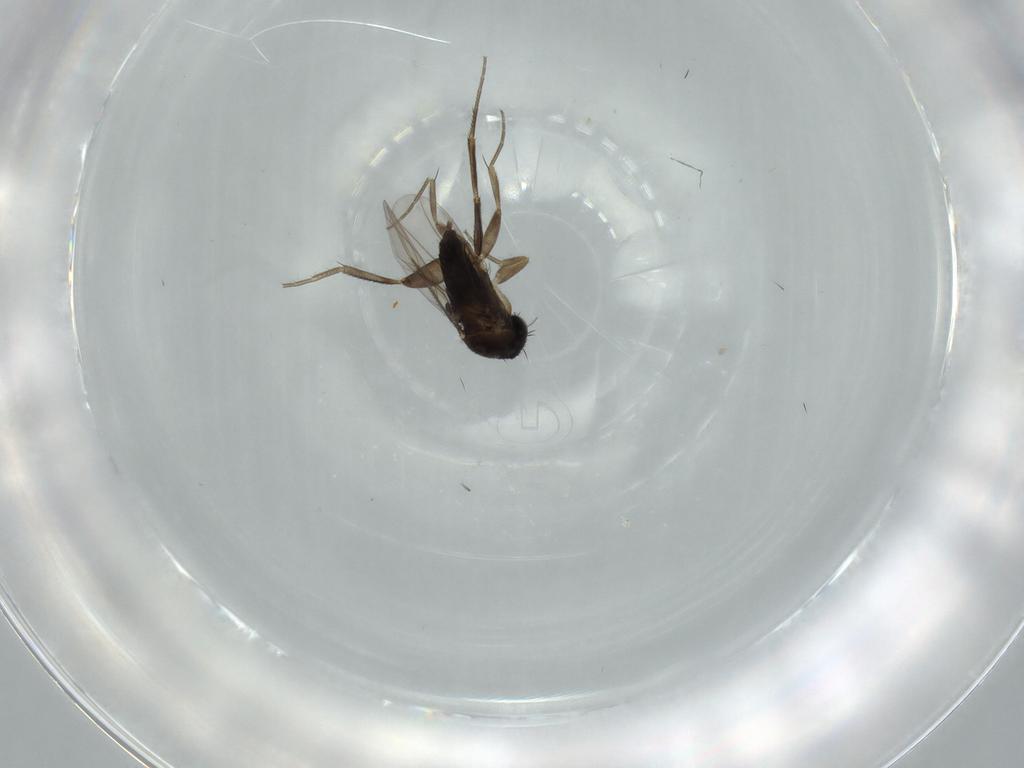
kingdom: Animalia
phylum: Arthropoda
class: Insecta
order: Diptera
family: Phoridae
